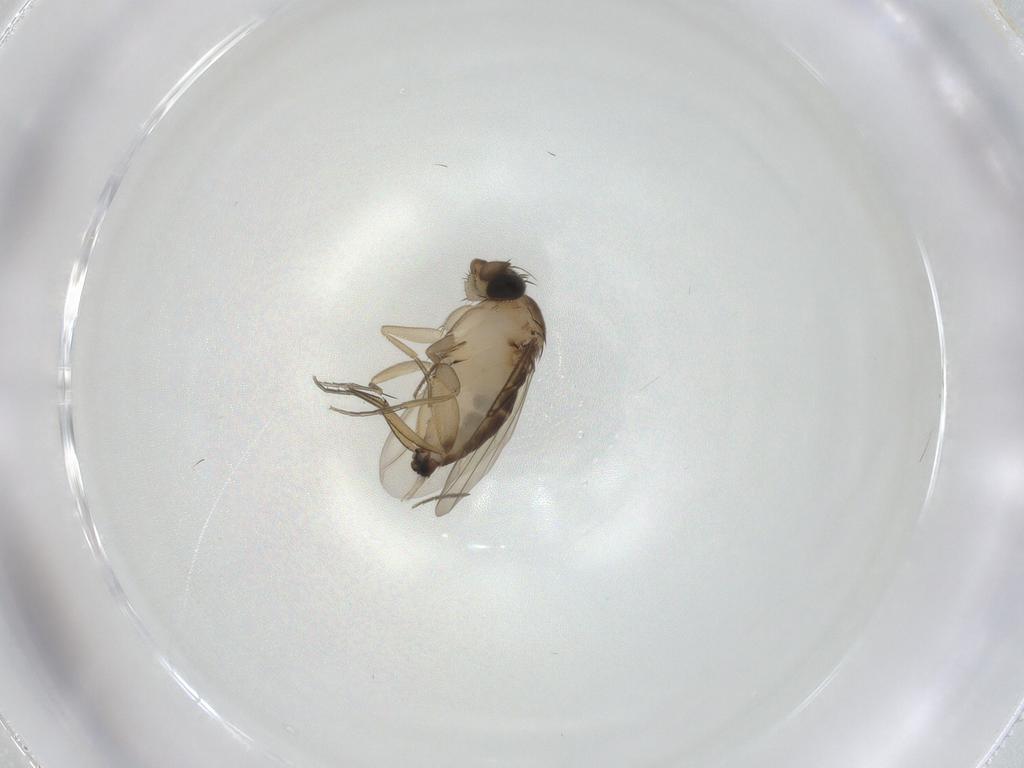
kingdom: Animalia
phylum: Arthropoda
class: Insecta
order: Diptera
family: Phoridae
